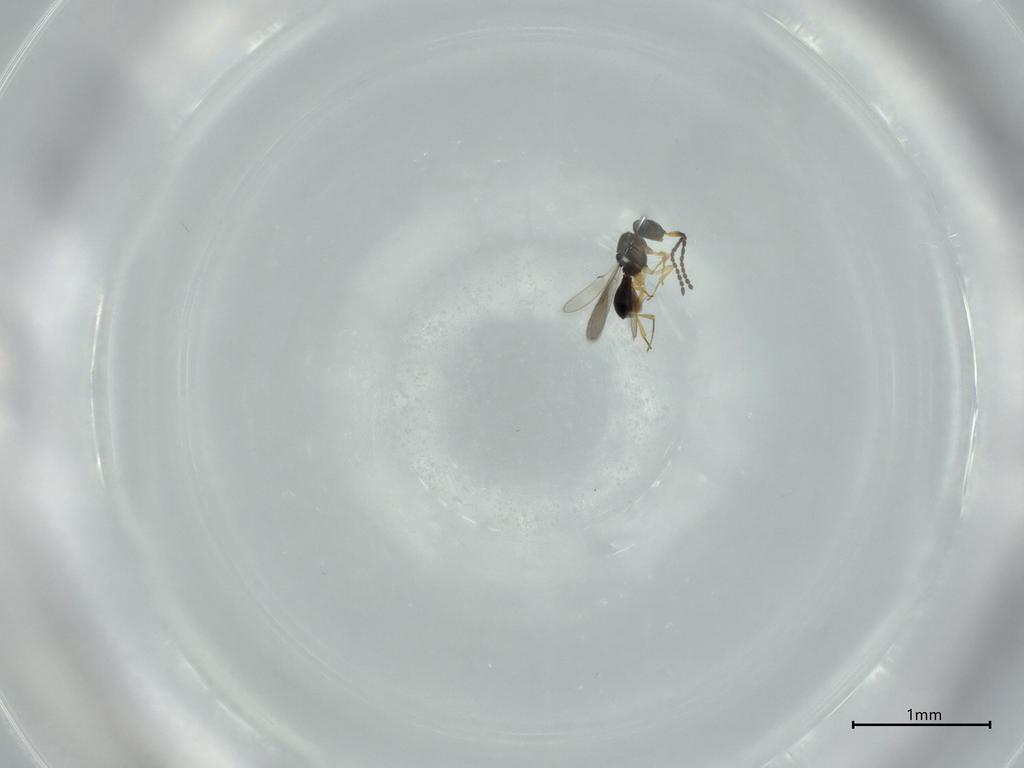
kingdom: Animalia
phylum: Arthropoda
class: Insecta
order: Hymenoptera
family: Scelionidae
